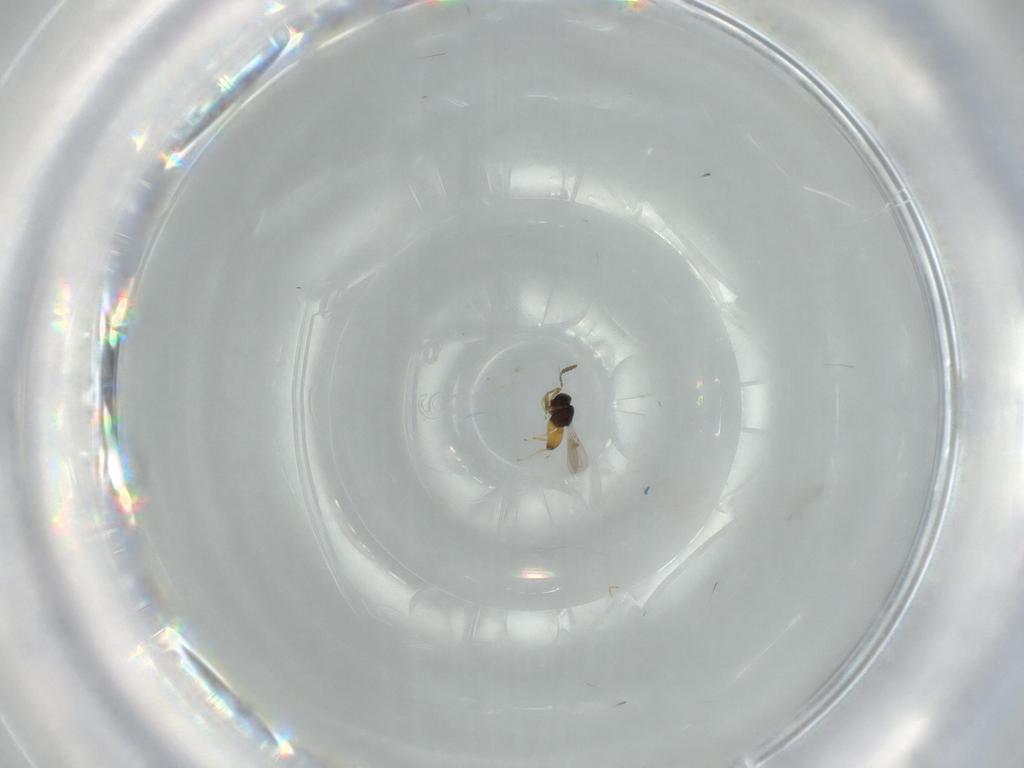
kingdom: Animalia
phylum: Arthropoda
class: Insecta
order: Hymenoptera
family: Scelionidae
